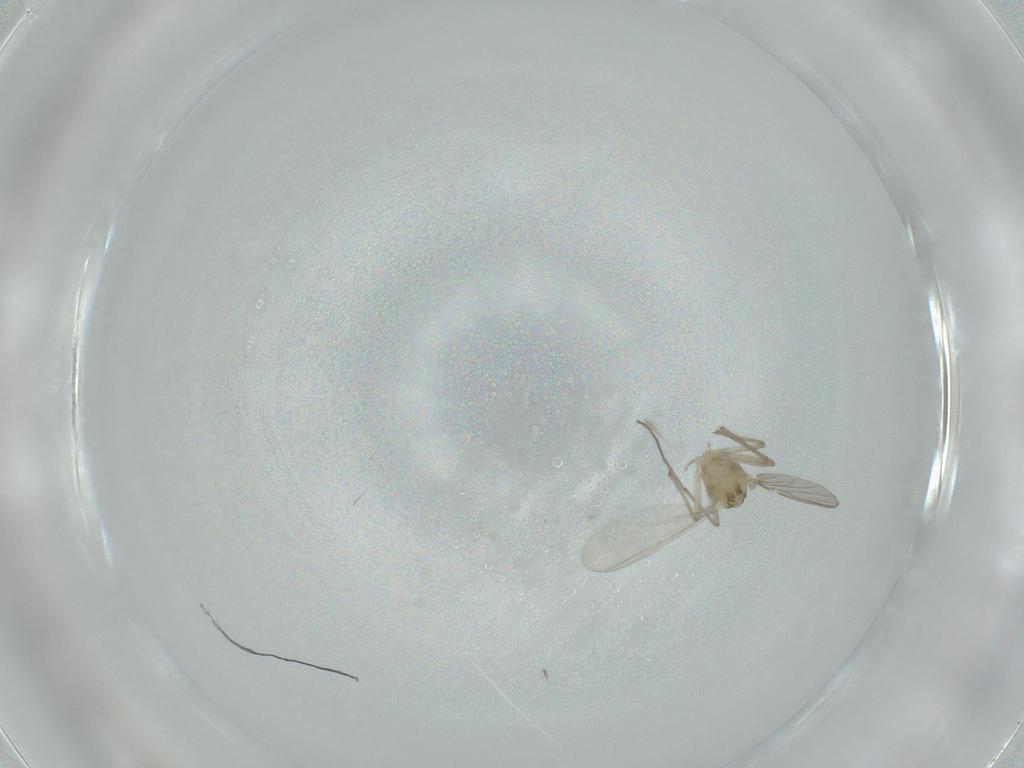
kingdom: Animalia
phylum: Arthropoda
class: Insecta
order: Diptera
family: Chironomidae
